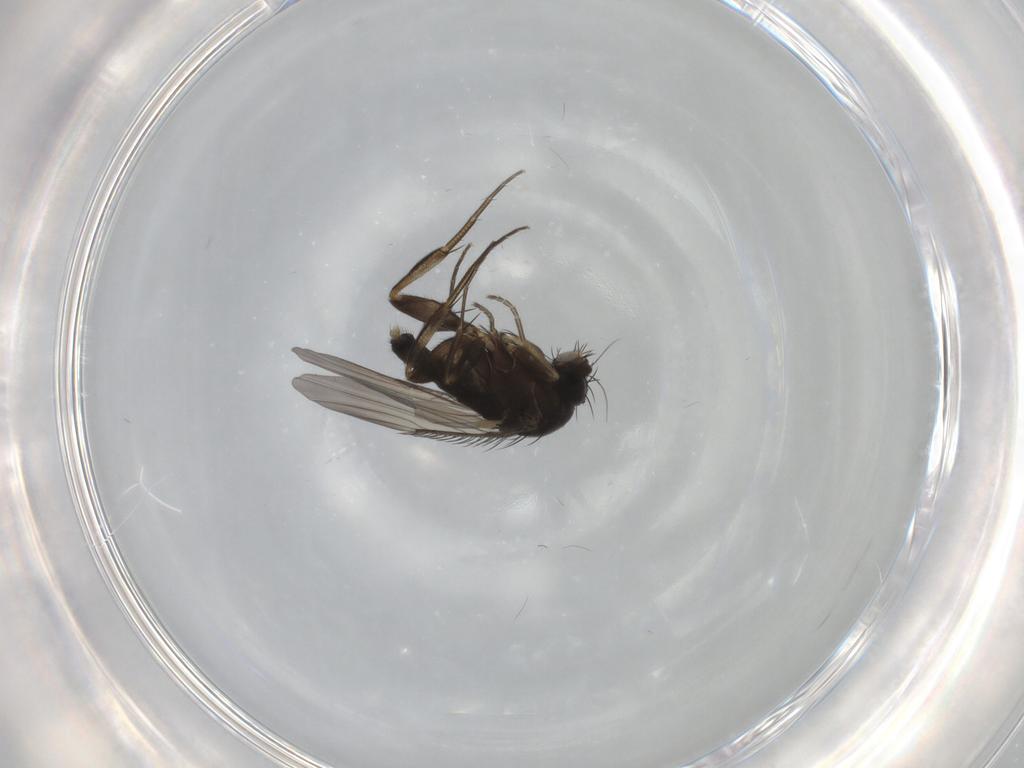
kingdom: Animalia
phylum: Arthropoda
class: Insecta
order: Diptera
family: Phoridae
